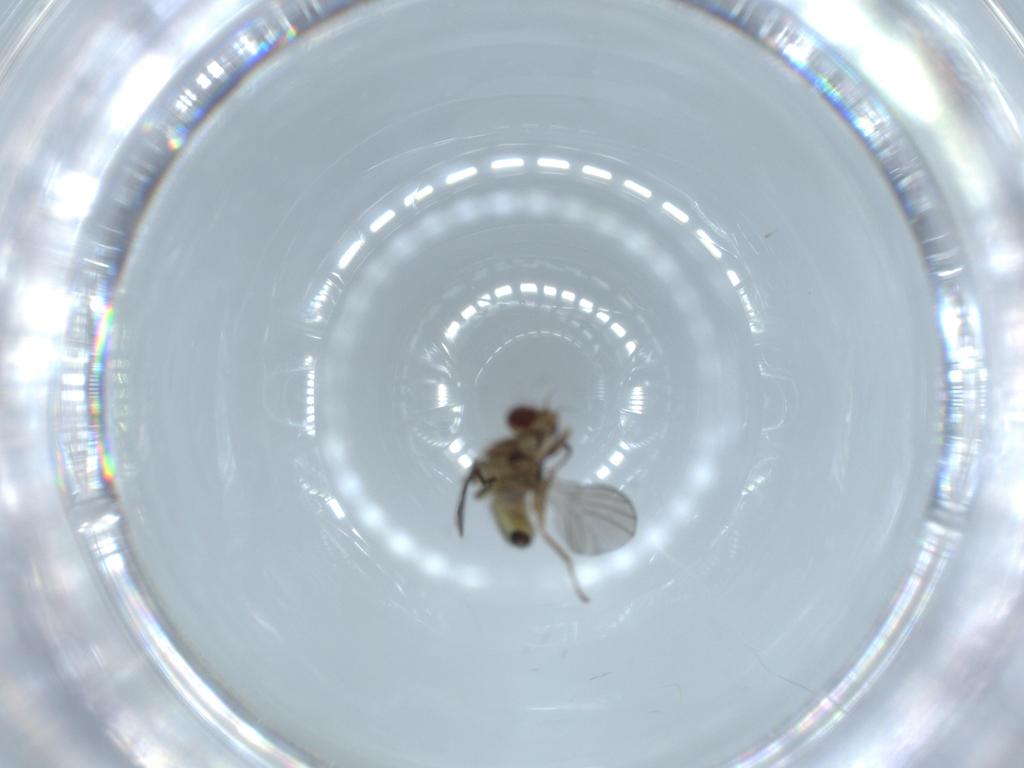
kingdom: Animalia
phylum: Arthropoda
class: Insecta
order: Diptera
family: Agromyzidae
